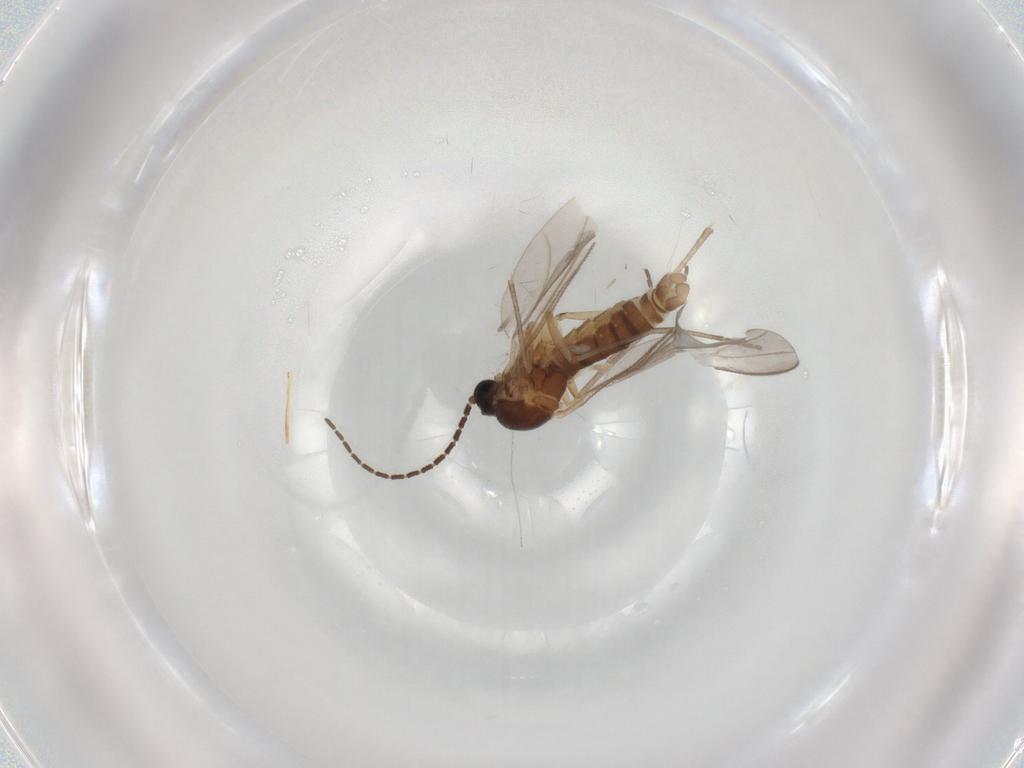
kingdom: Animalia
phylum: Arthropoda
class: Insecta
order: Diptera
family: Sciaridae
